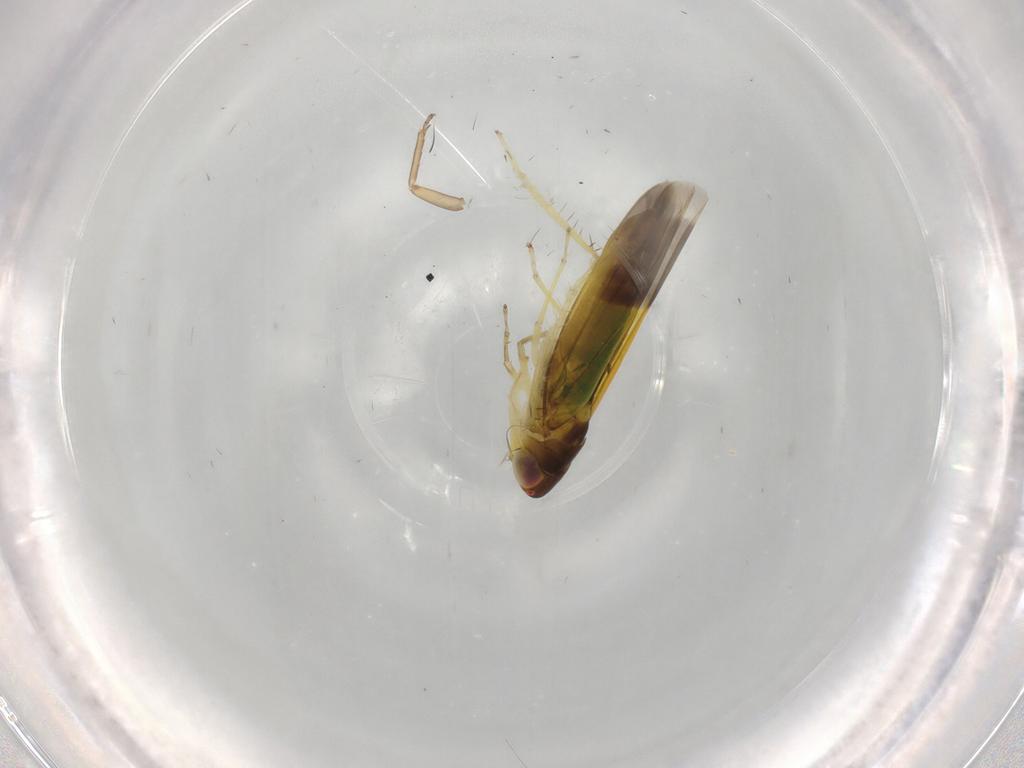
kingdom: Animalia
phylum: Arthropoda
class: Insecta
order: Hemiptera
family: Cicadellidae
